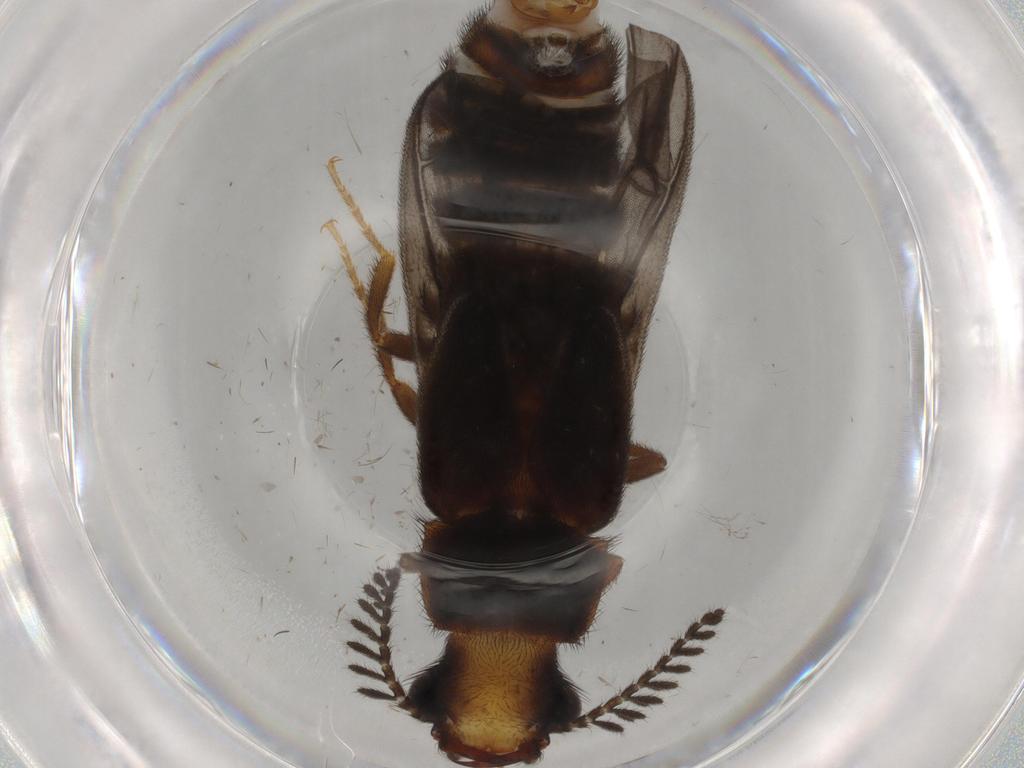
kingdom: Animalia
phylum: Arthropoda
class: Insecta
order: Coleoptera
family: Phengodidae
